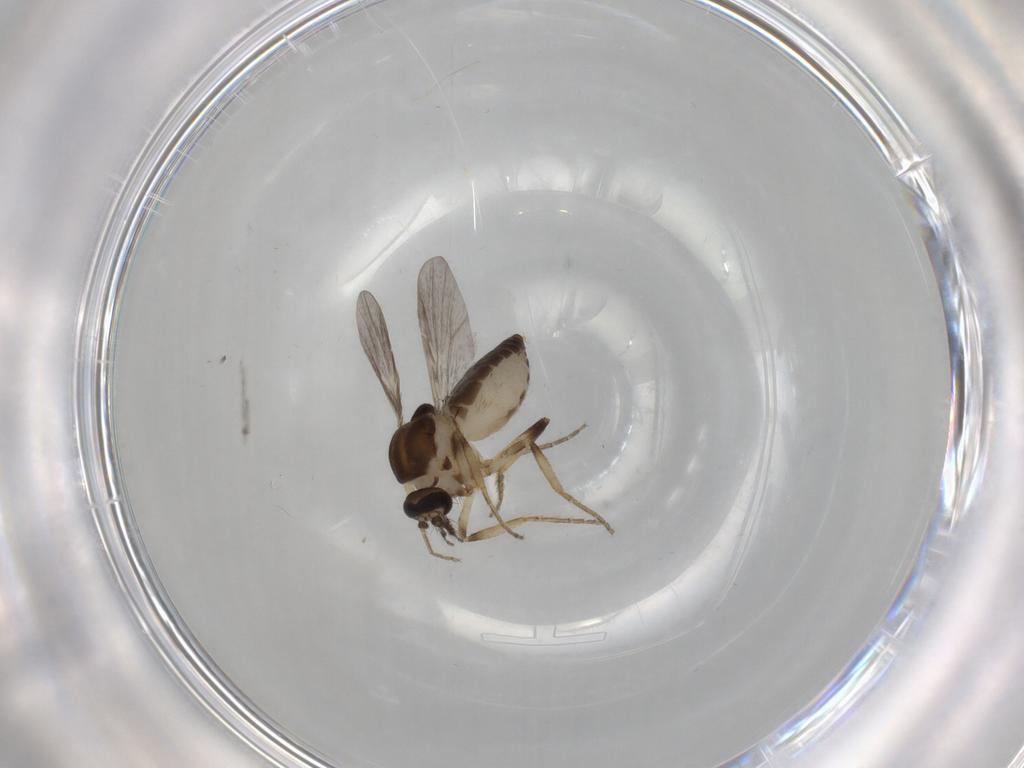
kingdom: Animalia
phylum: Arthropoda
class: Insecta
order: Diptera
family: Ceratopogonidae
